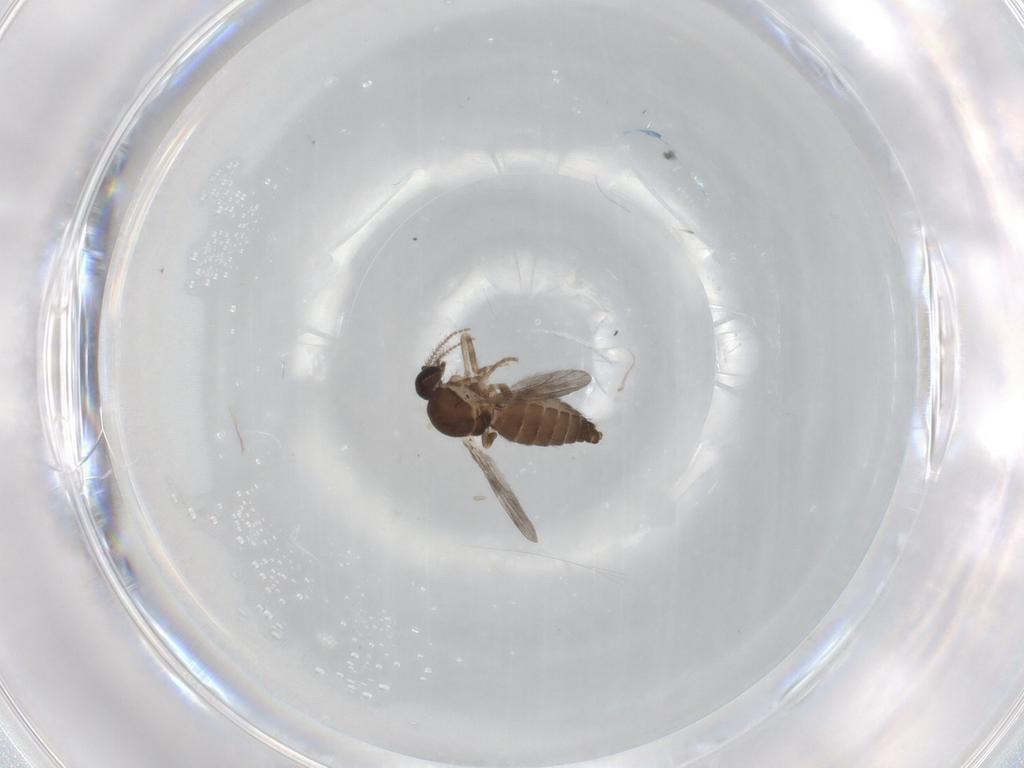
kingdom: Animalia
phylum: Arthropoda
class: Insecta
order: Diptera
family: Ceratopogonidae
